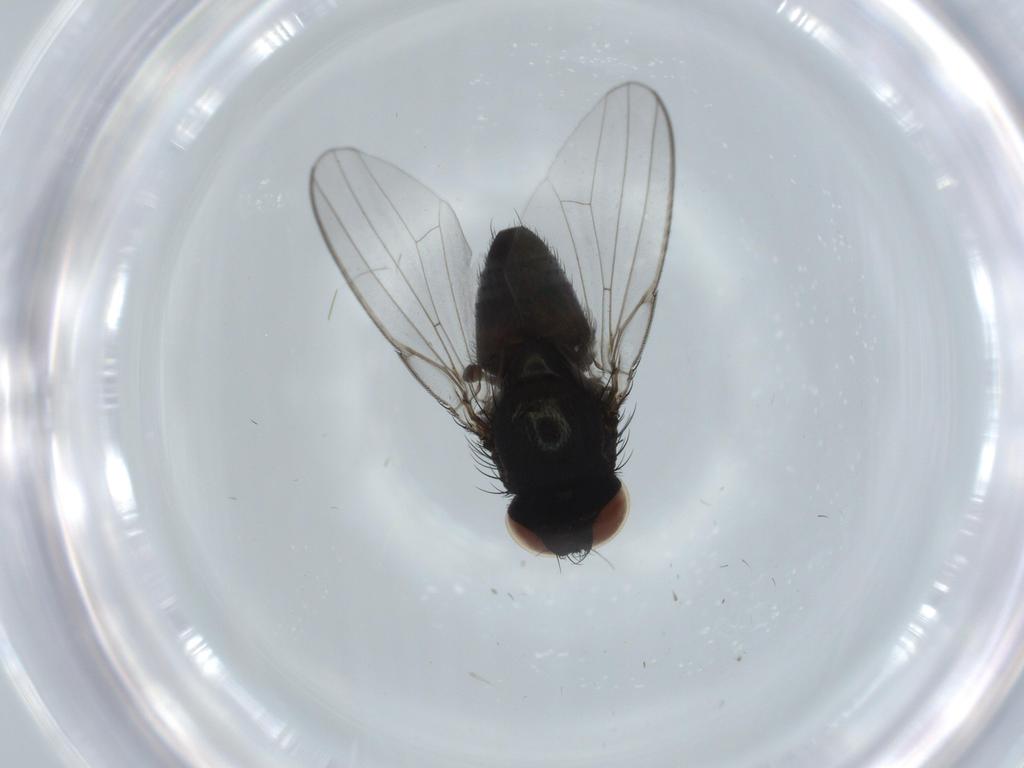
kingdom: Animalia
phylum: Arthropoda
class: Insecta
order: Diptera
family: Milichiidae
